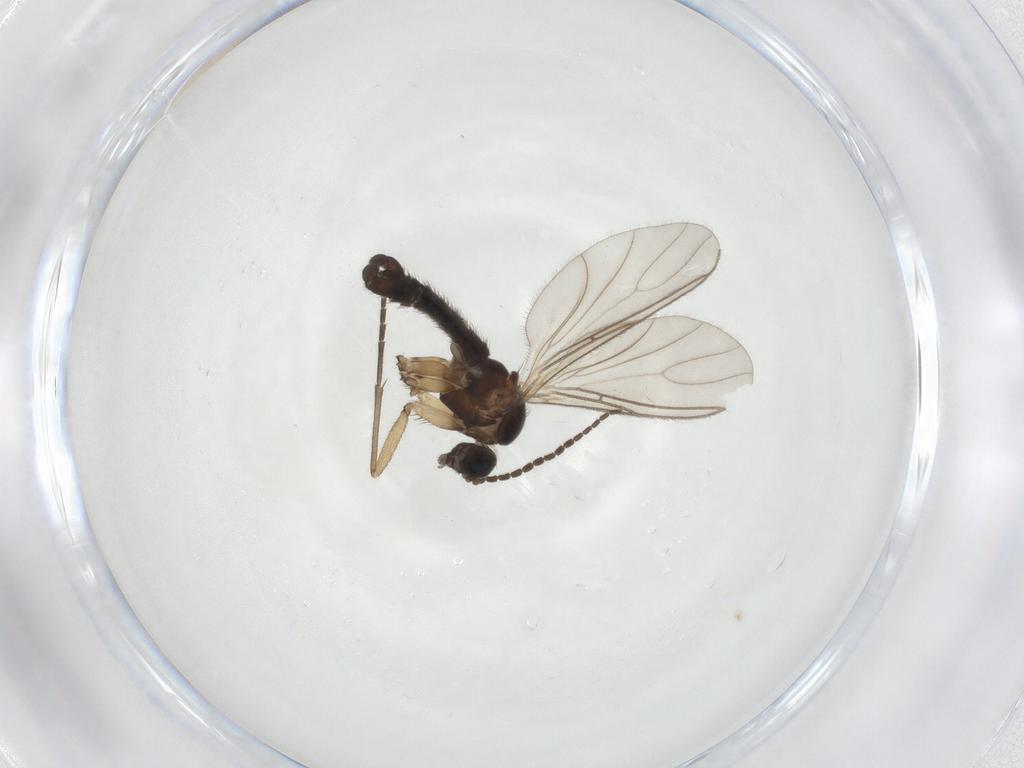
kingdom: Animalia
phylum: Arthropoda
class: Insecta
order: Diptera
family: Sciaridae
